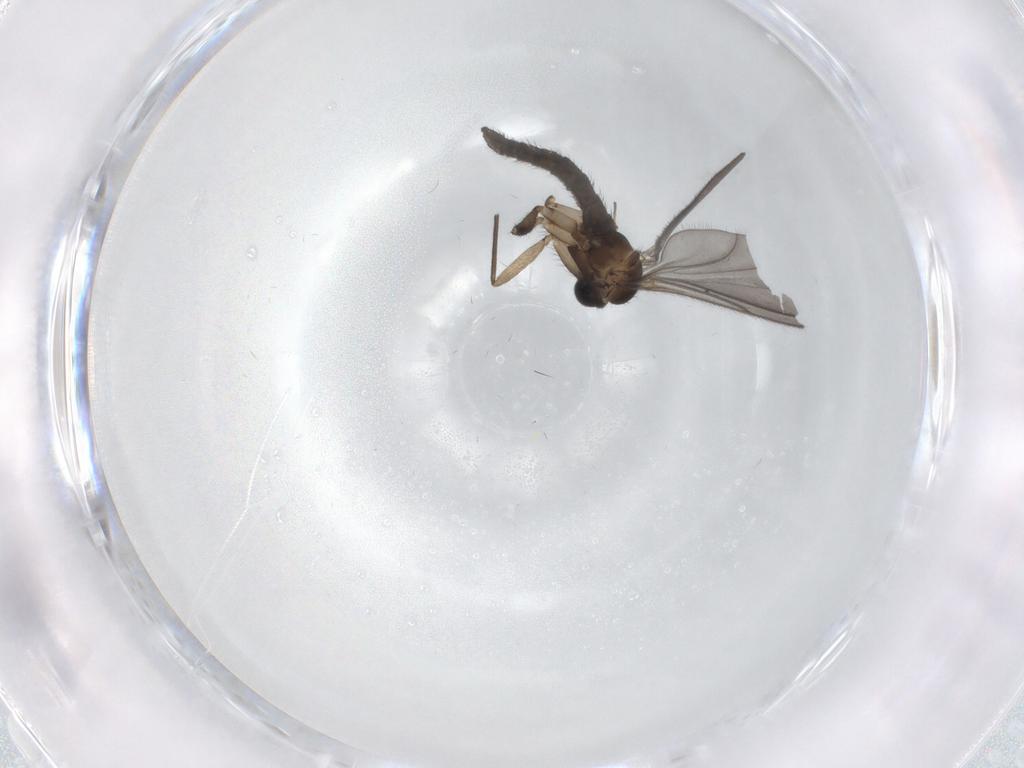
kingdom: Animalia
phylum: Arthropoda
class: Insecta
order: Diptera
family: Sciaridae
